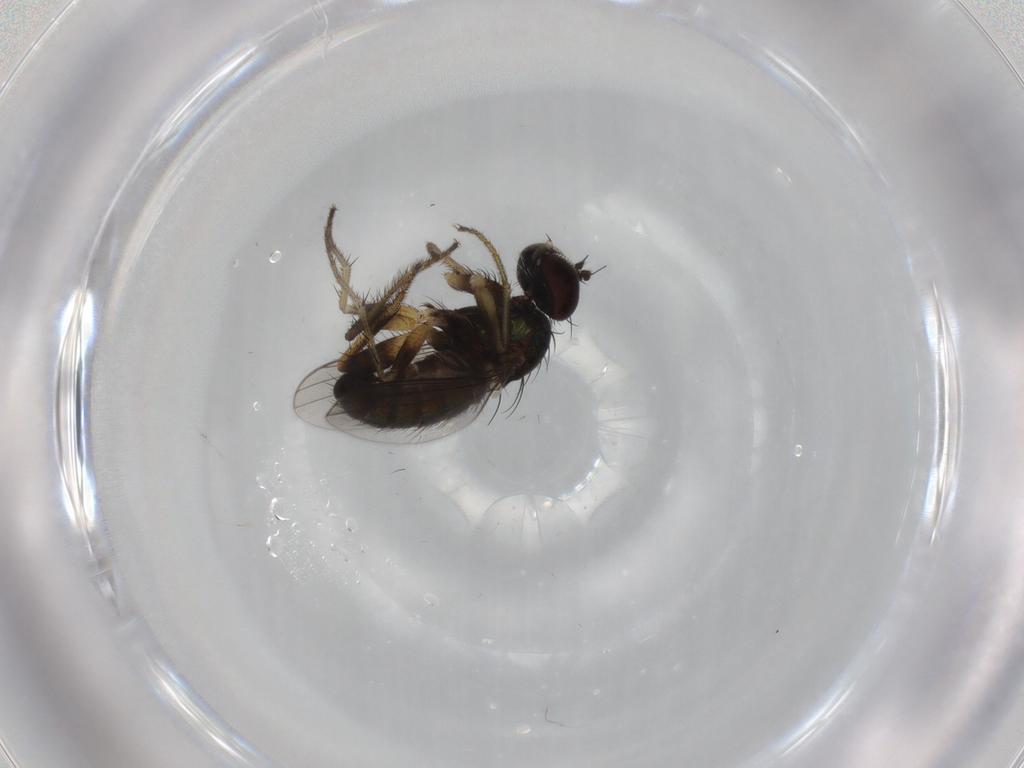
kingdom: Animalia
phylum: Arthropoda
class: Insecta
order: Diptera
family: Dolichopodidae
